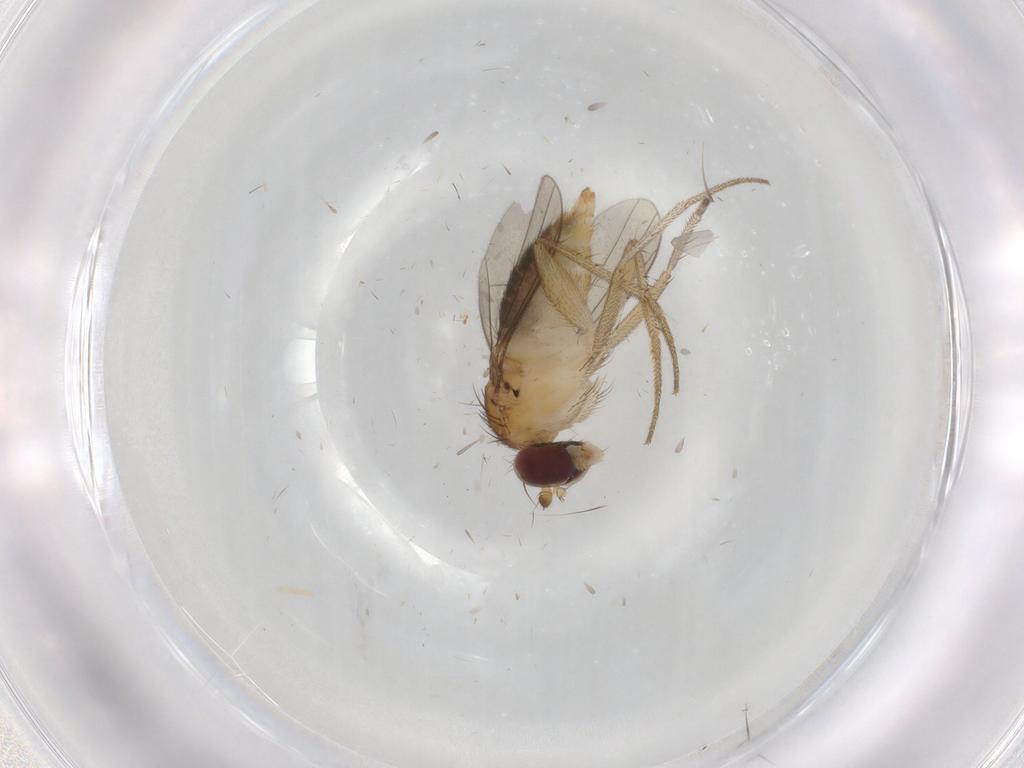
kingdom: Animalia
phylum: Arthropoda
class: Insecta
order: Diptera
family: Dolichopodidae
